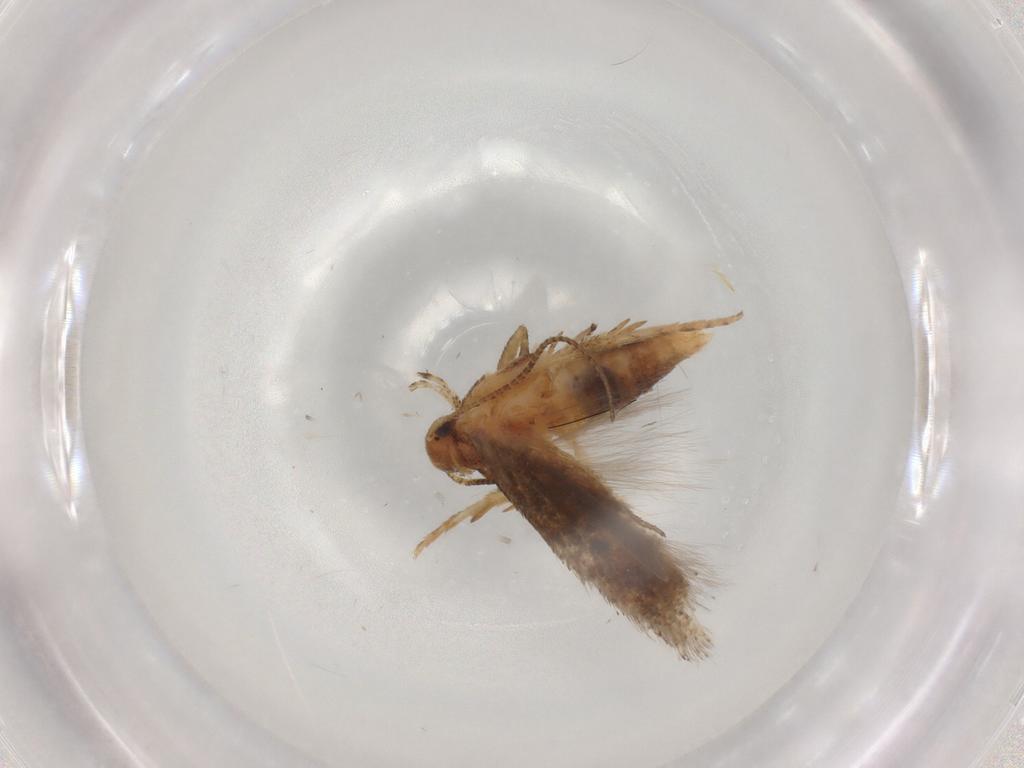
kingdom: Animalia
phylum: Arthropoda
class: Insecta
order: Lepidoptera
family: Gelechiidae
